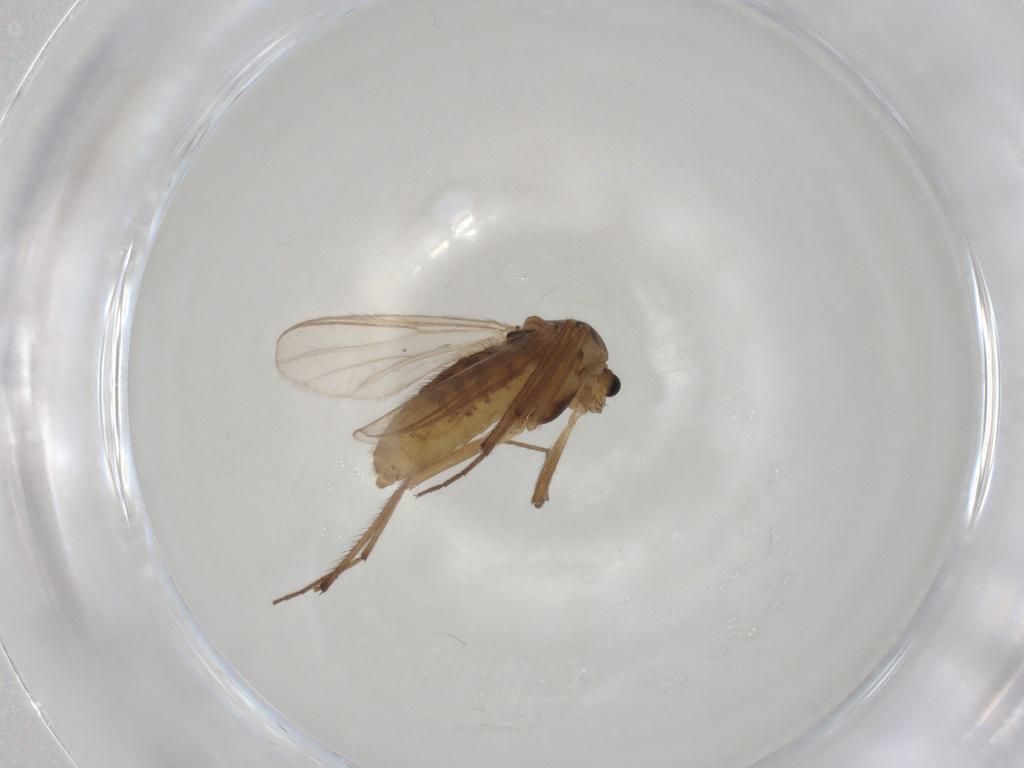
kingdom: Animalia
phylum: Arthropoda
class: Insecta
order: Diptera
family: Chironomidae
